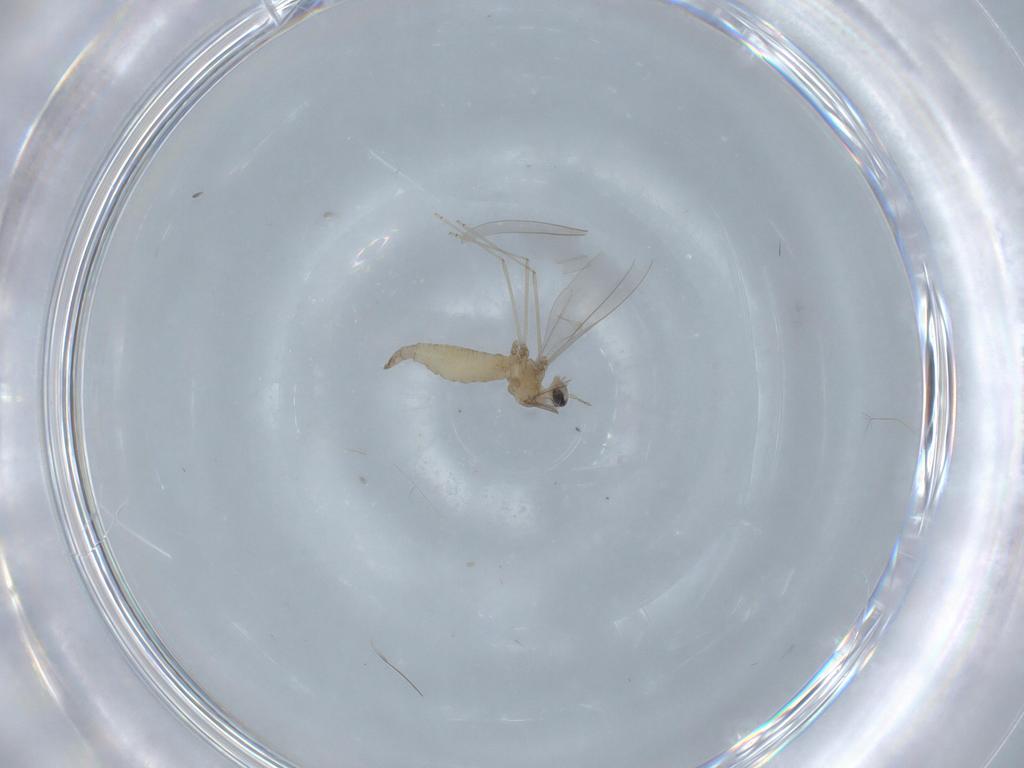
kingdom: Animalia
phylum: Arthropoda
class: Insecta
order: Diptera
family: Cecidomyiidae
